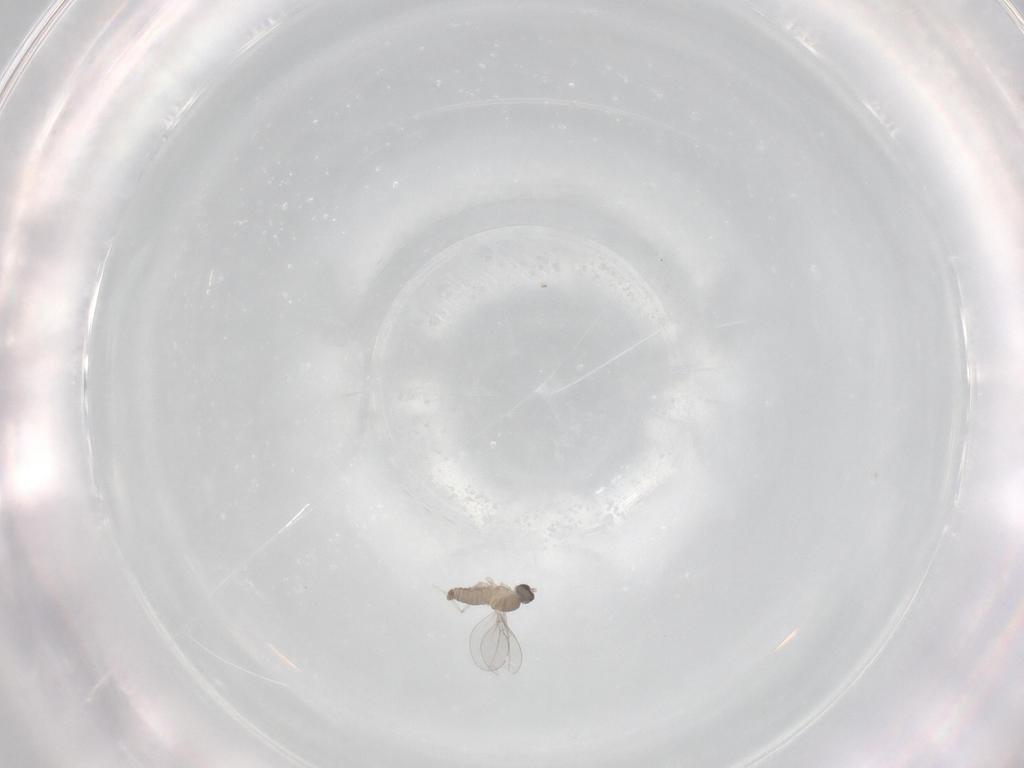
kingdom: Animalia
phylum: Arthropoda
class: Insecta
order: Diptera
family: Cecidomyiidae
